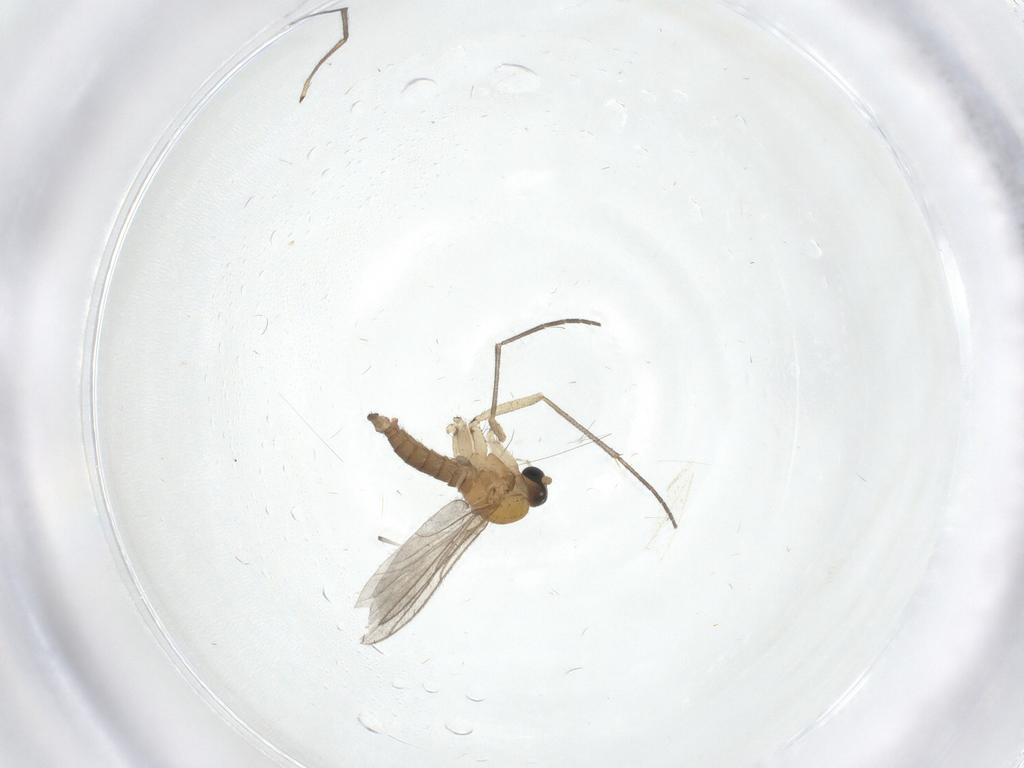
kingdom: Animalia
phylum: Arthropoda
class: Insecta
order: Diptera
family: Sciaridae
